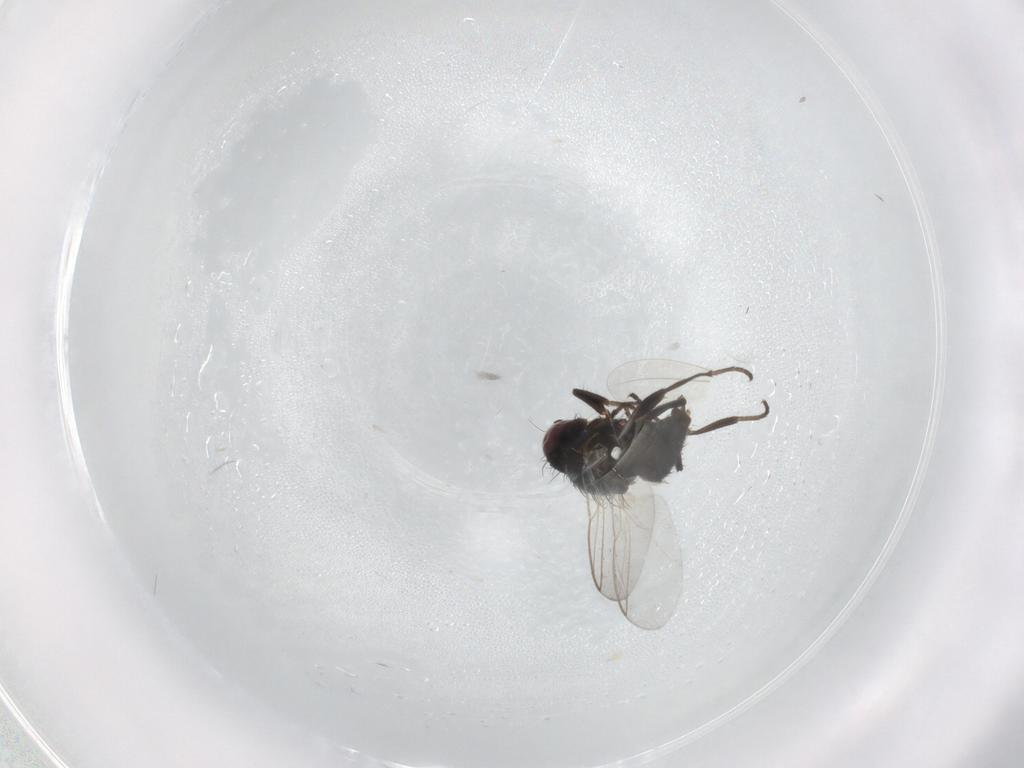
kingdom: Animalia
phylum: Arthropoda
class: Insecta
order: Diptera
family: Agromyzidae
